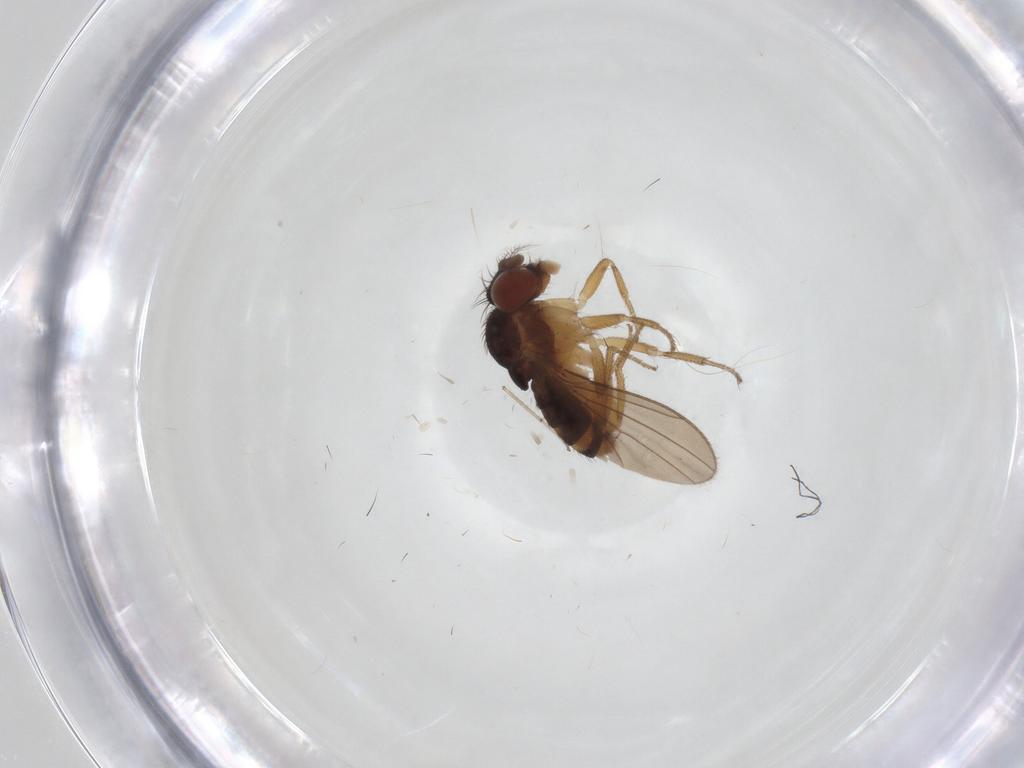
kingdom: Animalia
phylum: Arthropoda
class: Insecta
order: Diptera
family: Drosophilidae
